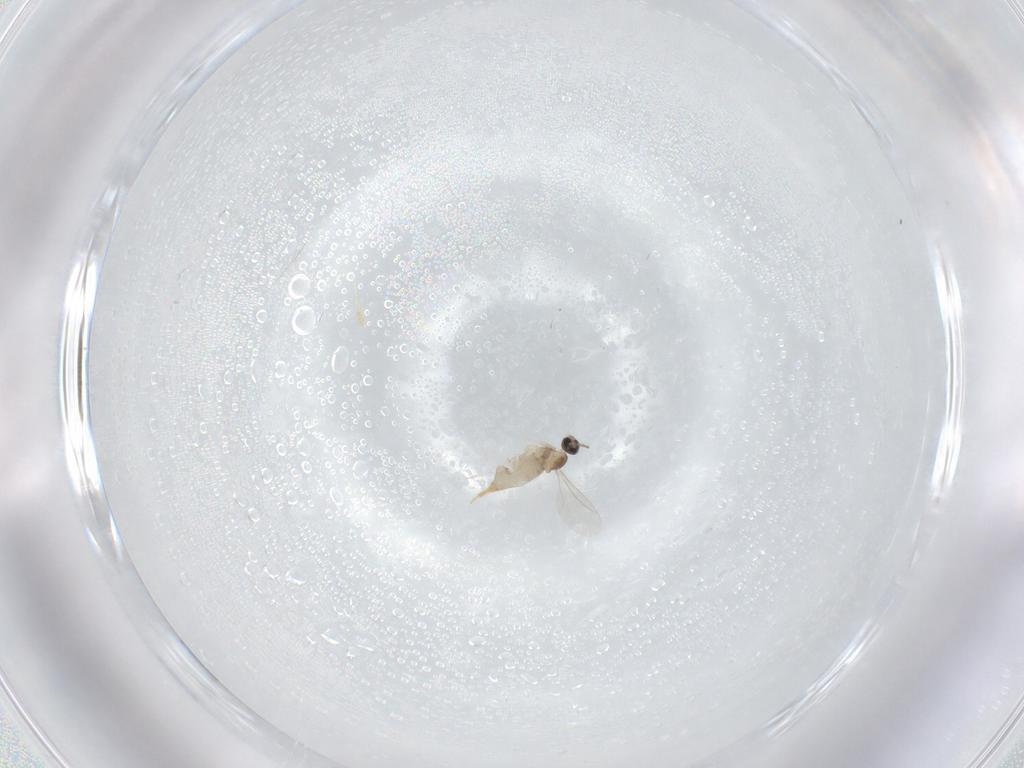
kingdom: Animalia
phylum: Arthropoda
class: Insecta
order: Diptera
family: Cecidomyiidae
